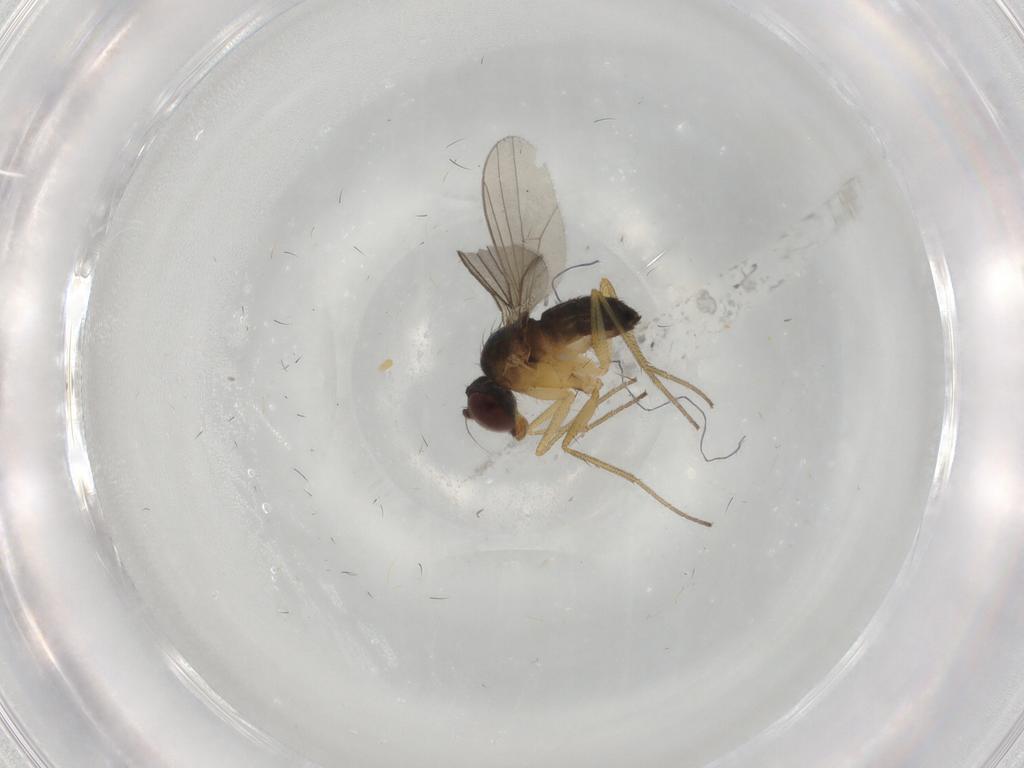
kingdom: Animalia
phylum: Arthropoda
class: Insecta
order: Diptera
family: Dolichopodidae
